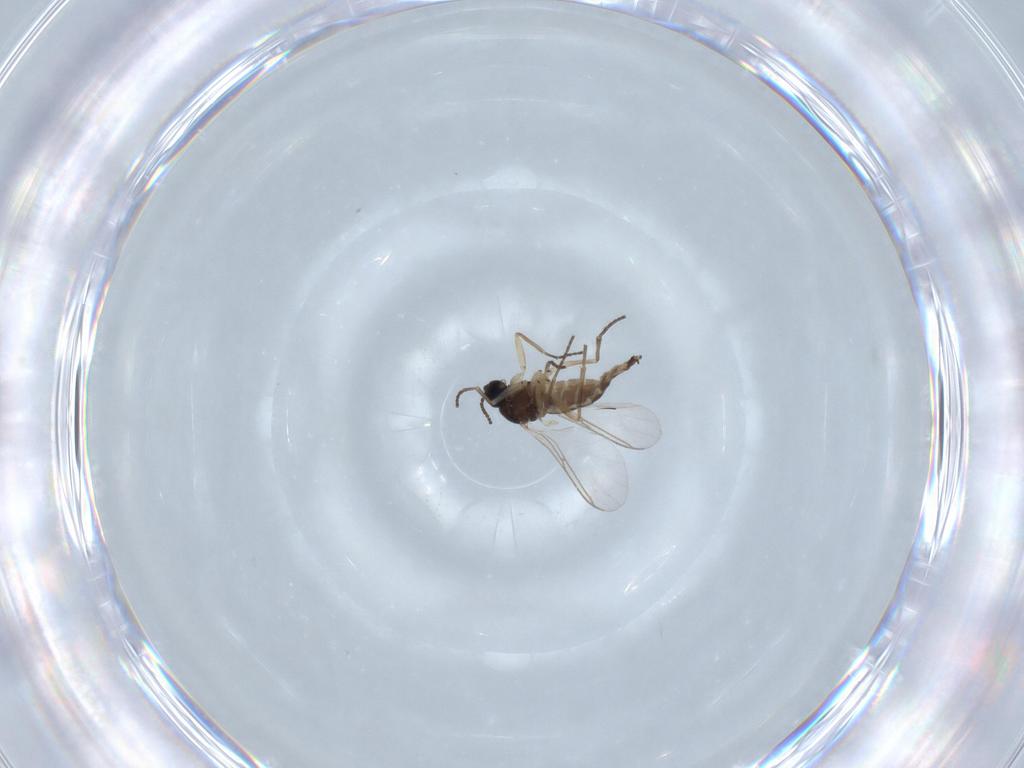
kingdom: Animalia
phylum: Arthropoda
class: Insecta
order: Diptera
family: Sciaridae
